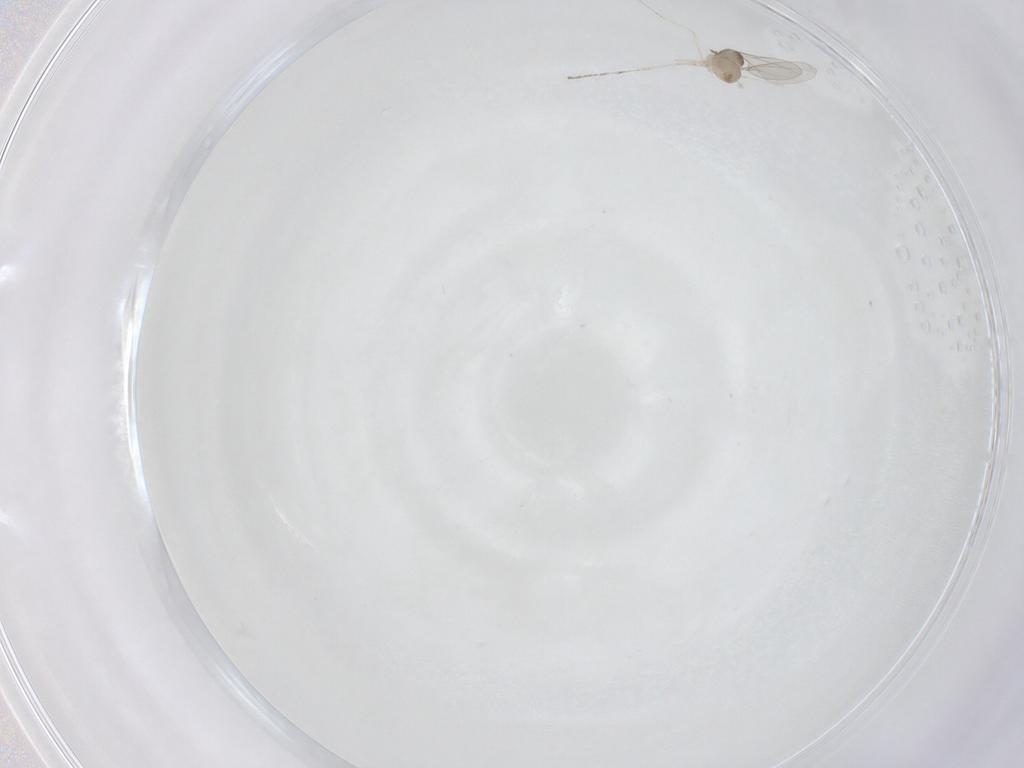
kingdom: Animalia
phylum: Arthropoda
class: Insecta
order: Diptera
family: Cecidomyiidae
